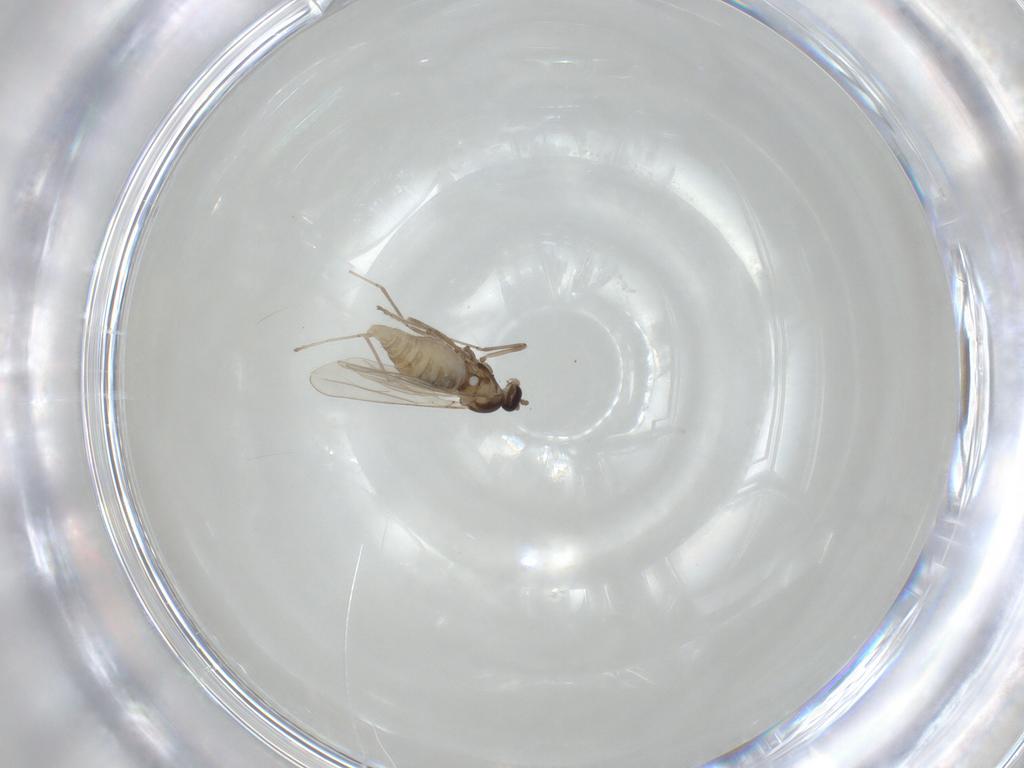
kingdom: Animalia
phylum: Arthropoda
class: Insecta
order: Diptera
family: Cecidomyiidae
